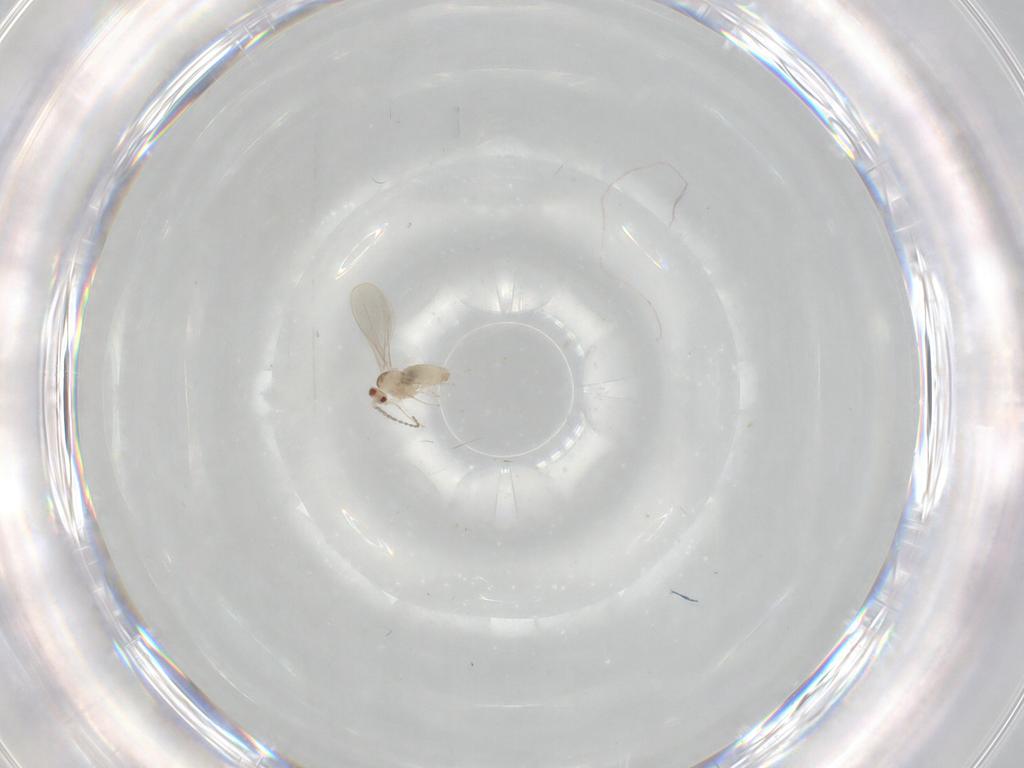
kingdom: Animalia
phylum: Arthropoda
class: Insecta
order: Diptera
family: Cecidomyiidae
